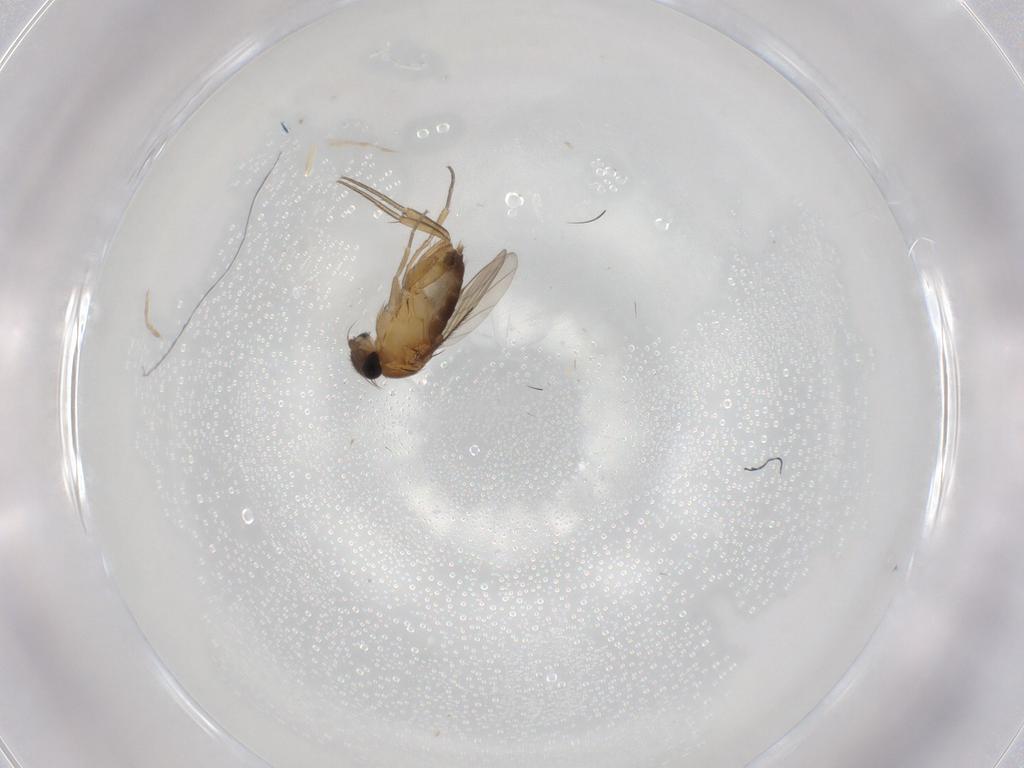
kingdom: Animalia
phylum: Arthropoda
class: Insecta
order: Diptera
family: Phoridae
